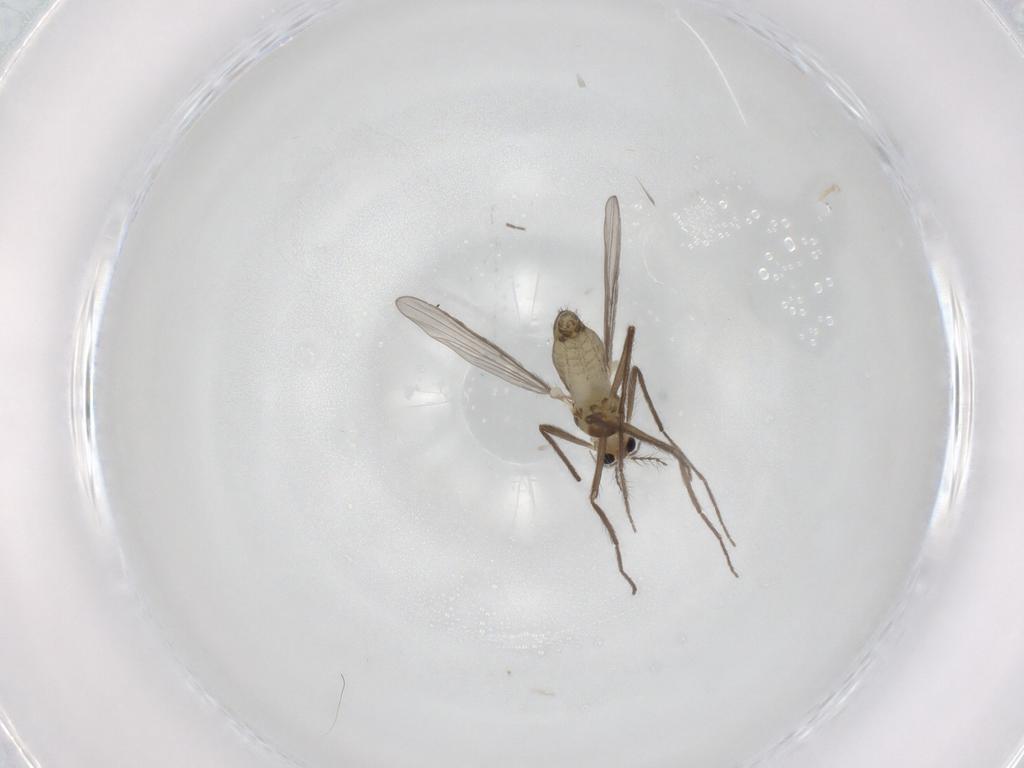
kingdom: Animalia
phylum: Arthropoda
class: Insecta
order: Diptera
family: Chironomidae
